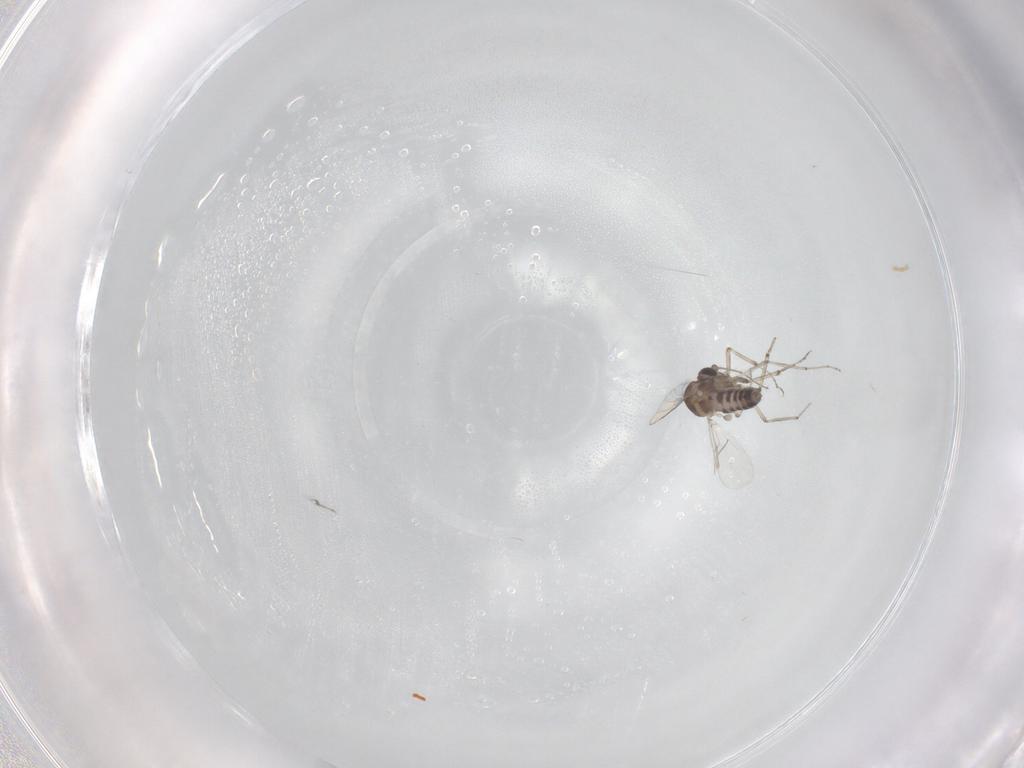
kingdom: Animalia
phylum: Arthropoda
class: Insecta
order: Diptera
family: Ceratopogonidae
